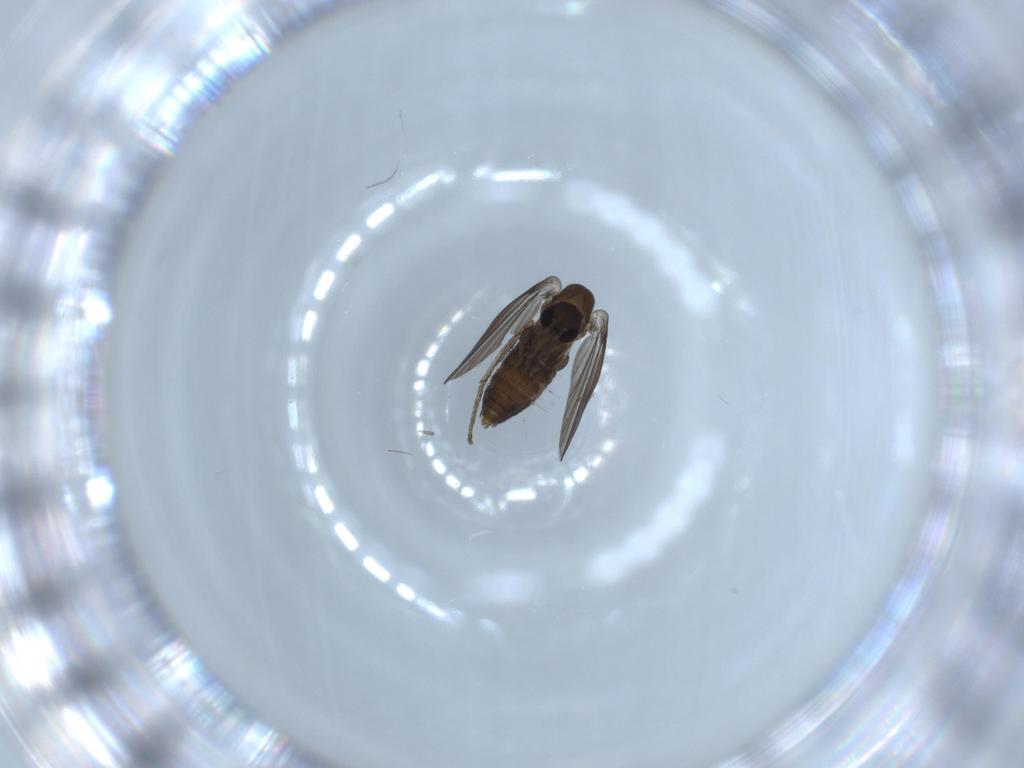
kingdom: Animalia
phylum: Arthropoda
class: Insecta
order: Diptera
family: Psychodidae
